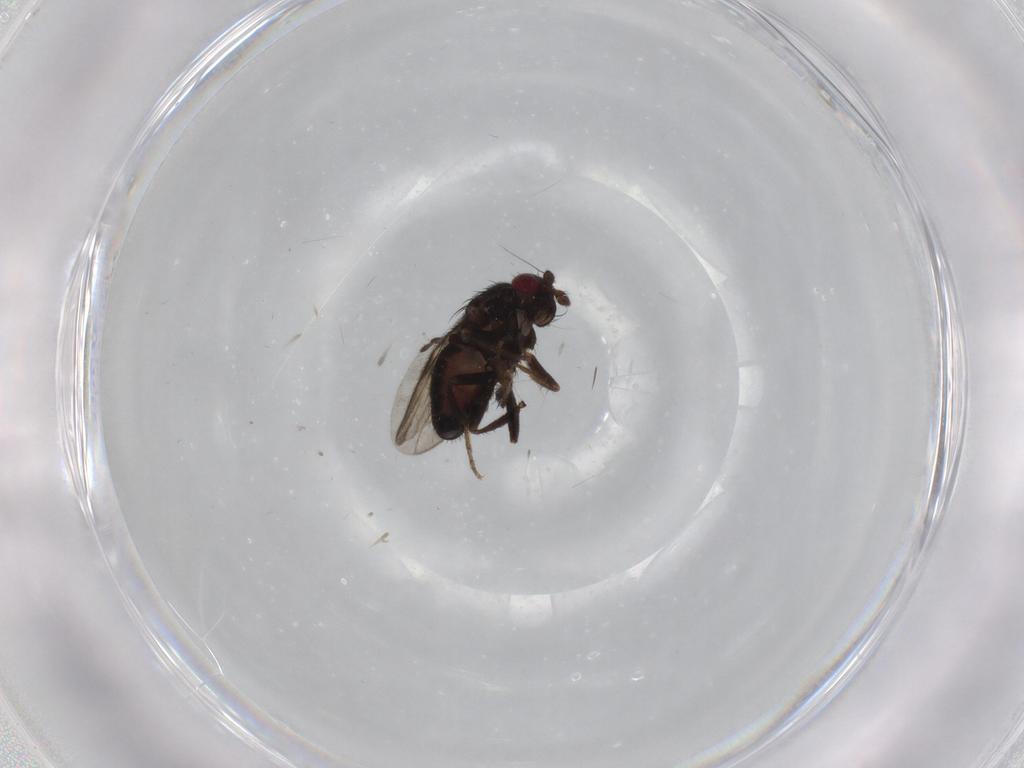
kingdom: Animalia
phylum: Arthropoda
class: Insecta
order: Diptera
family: Sphaeroceridae
